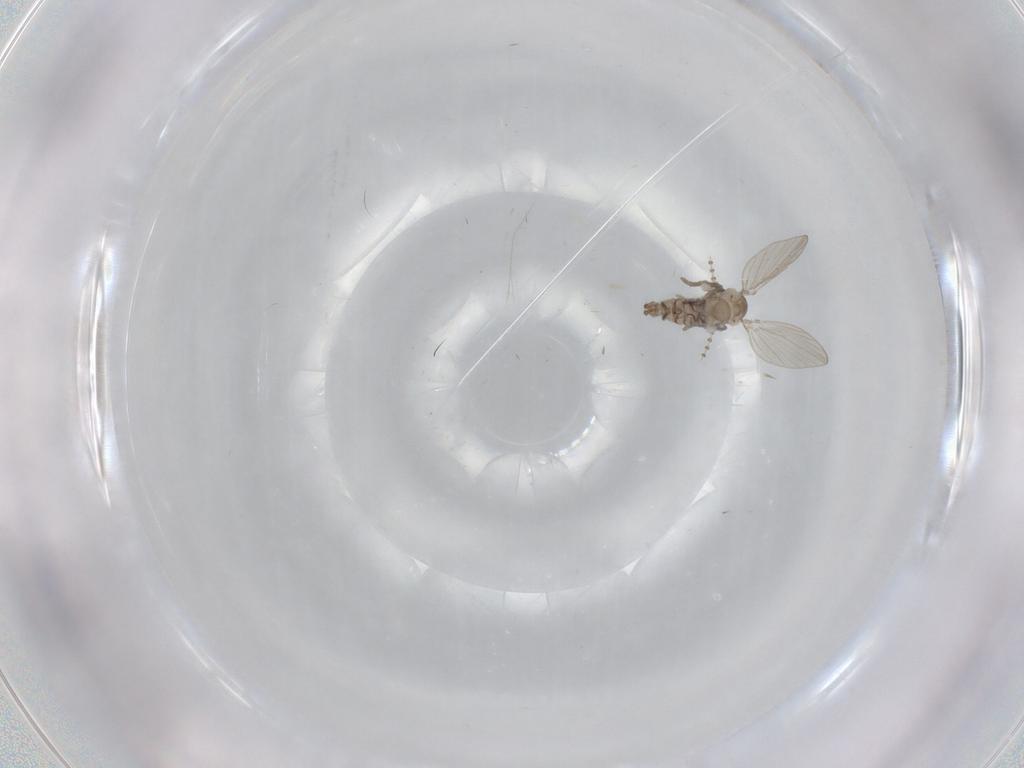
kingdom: Animalia
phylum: Arthropoda
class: Insecta
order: Diptera
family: Psychodidae
